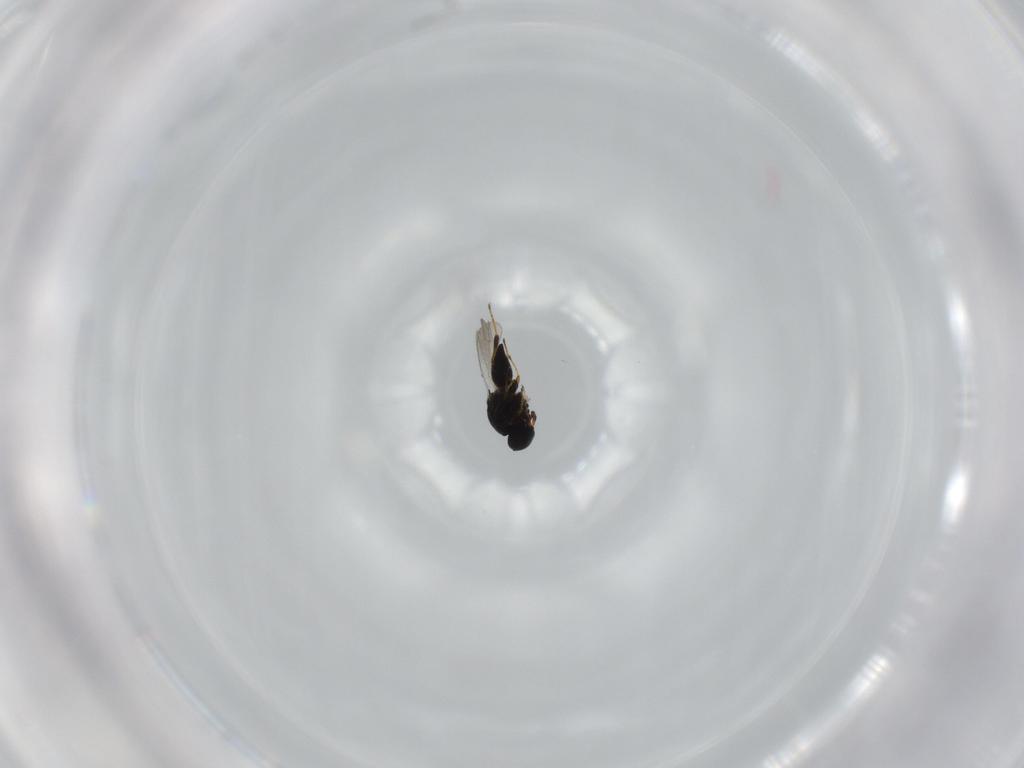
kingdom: Animalia
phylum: Arthropoda
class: Insecta
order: Hymenoptera
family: Platygastridae
